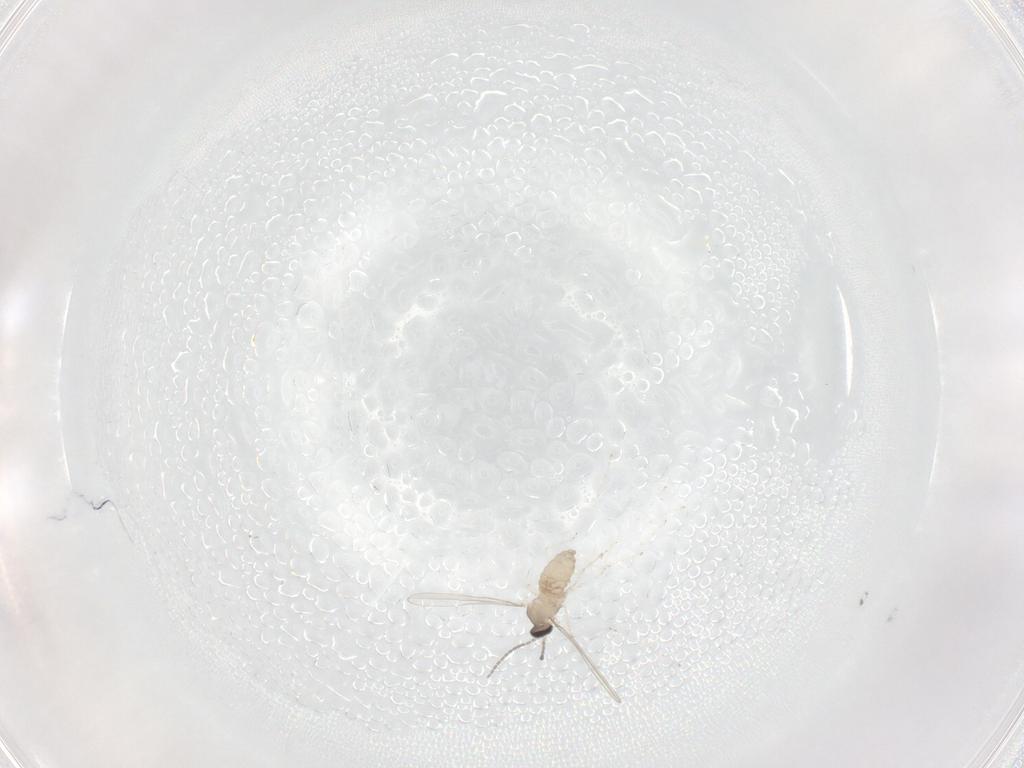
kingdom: Animalia
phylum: Arthropoda
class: Insecta
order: Diptera
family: Cecidomyiidae
